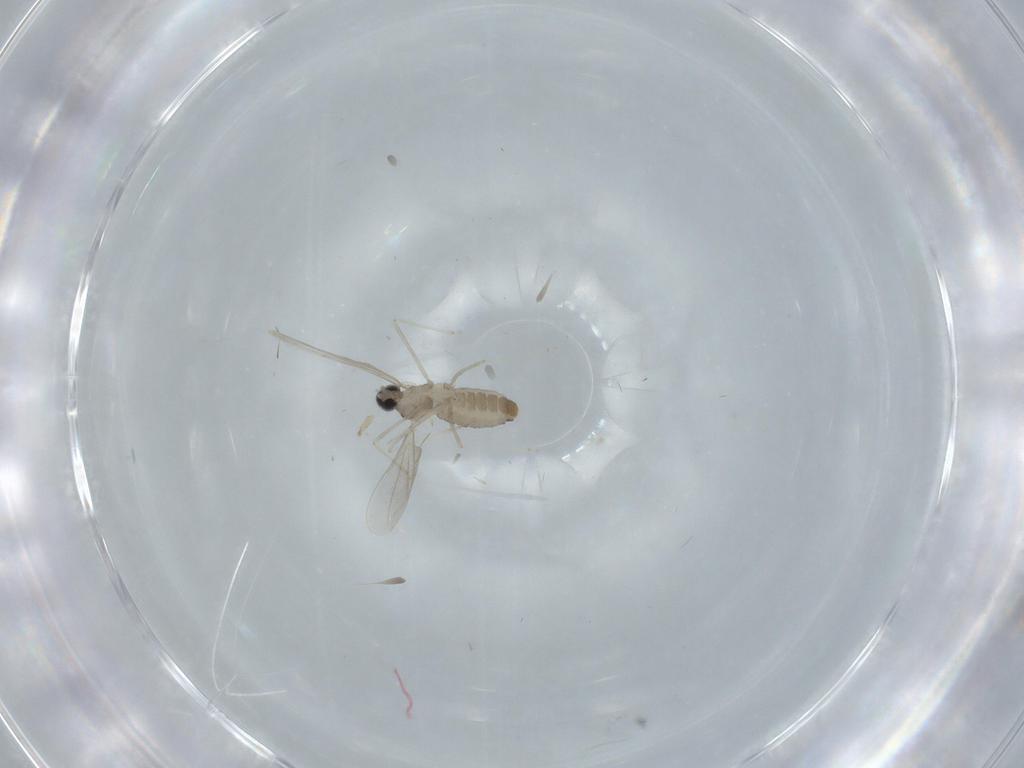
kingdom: Animalia
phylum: Arthropoda
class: Insecta
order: Diptera
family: Cecidomyiidae
